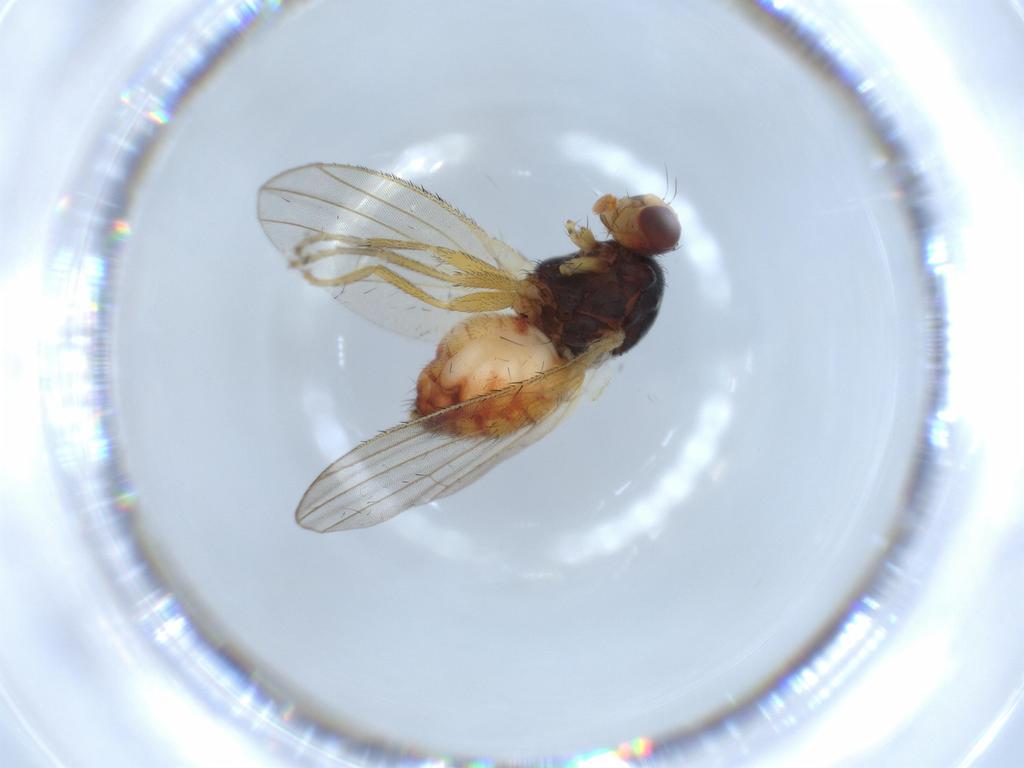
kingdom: Animalia
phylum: Arthropoda
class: Insecta
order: Diptera
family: Heleomyzidae
